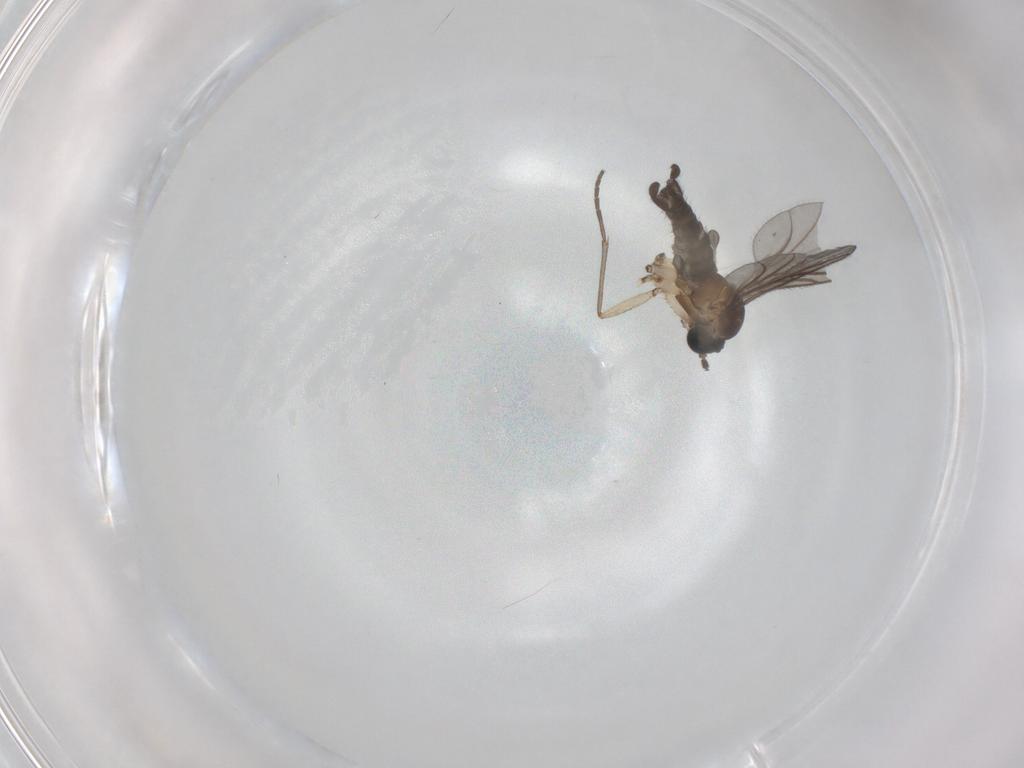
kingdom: Animalia
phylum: Arthropoda
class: Insecta
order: Diptera
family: Sciaridae
